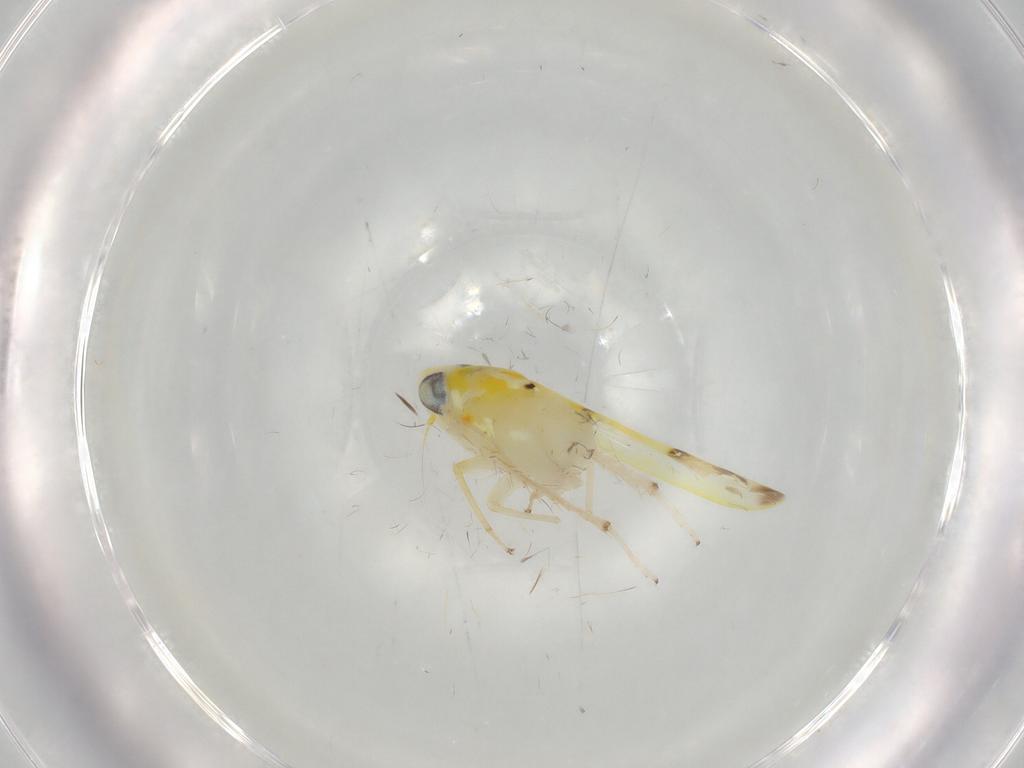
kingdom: Animalia
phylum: Arthropoda
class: Insecta
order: Hemiptera
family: Cicadellidae
